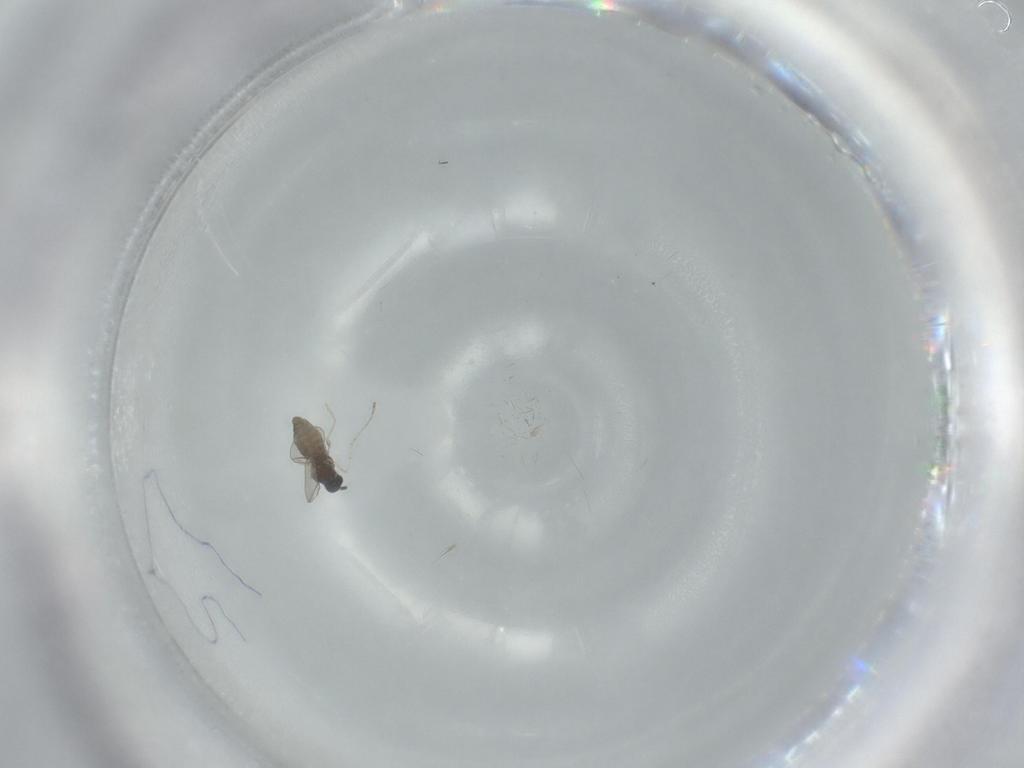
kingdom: Animalia
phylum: Arthropoda
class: Insecta
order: Diptera
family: Cecidomyiidae
